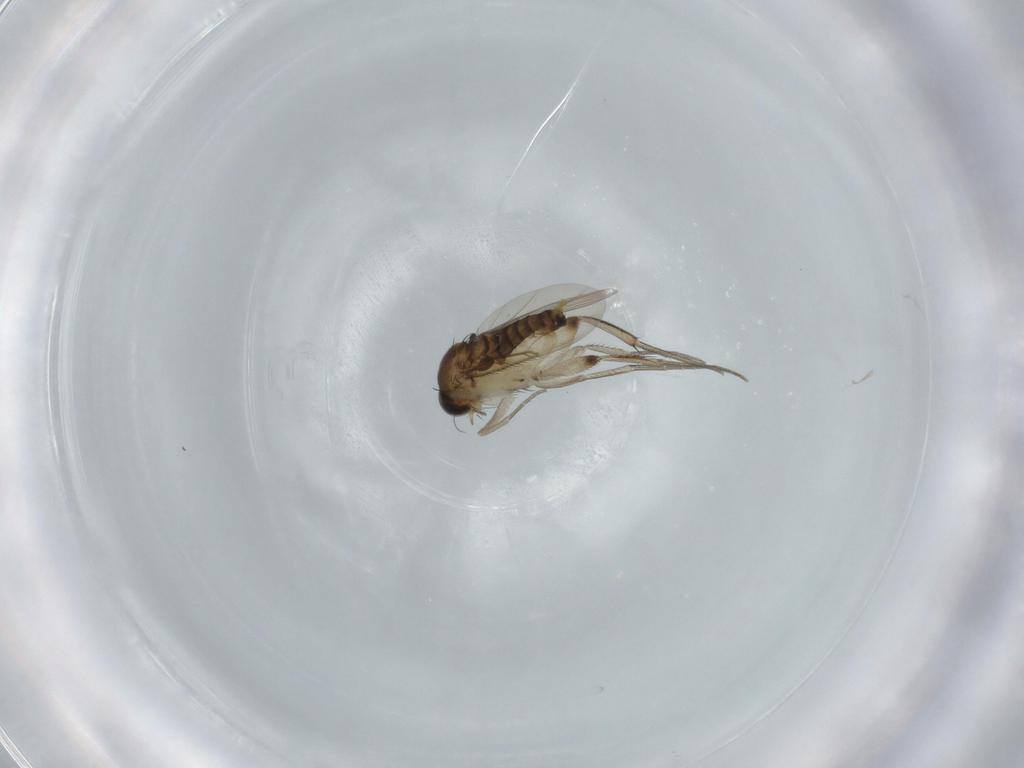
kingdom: Animalia
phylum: Arthropoda
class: Insecta
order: Diptera
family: Phoridae
